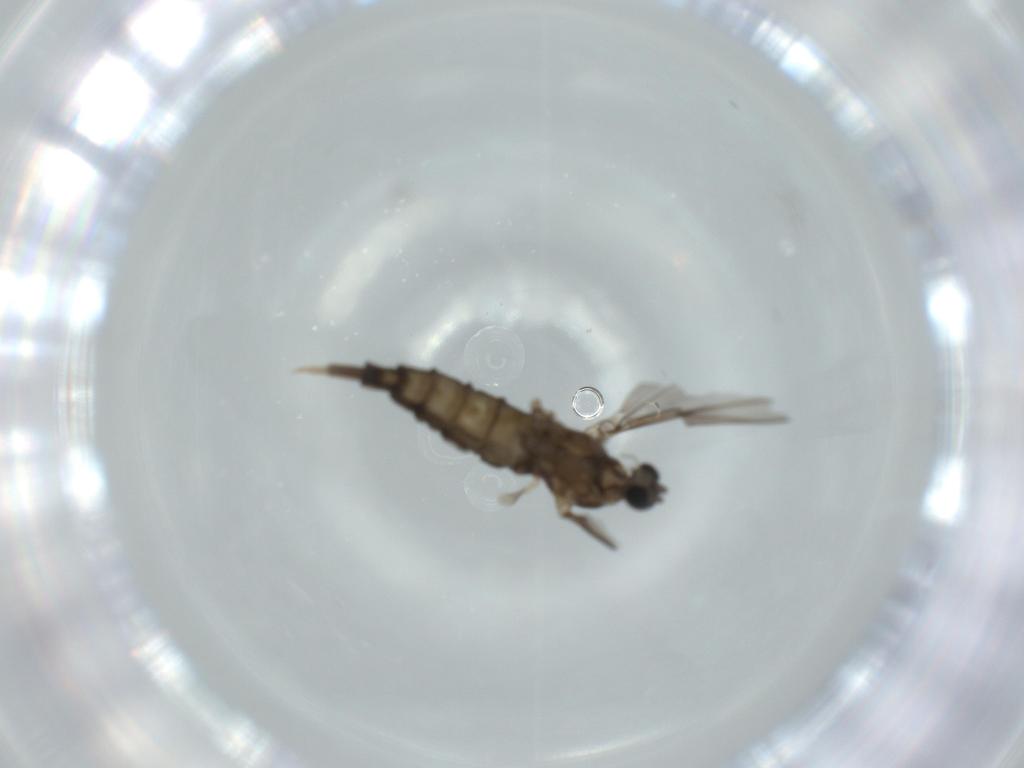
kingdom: Animalia
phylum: Arthropoda
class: Insecta
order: Diptera
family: Cecidomyiidae
